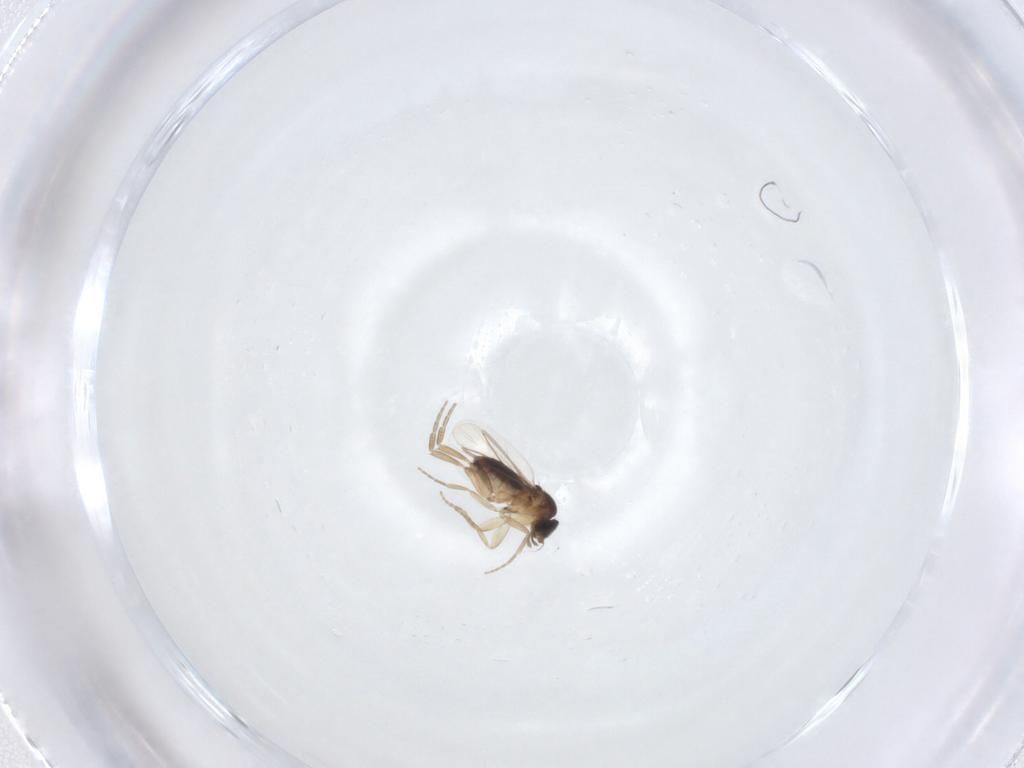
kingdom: Animalia
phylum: Arthropoda
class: Insecta
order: Diptera
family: Phoridae
